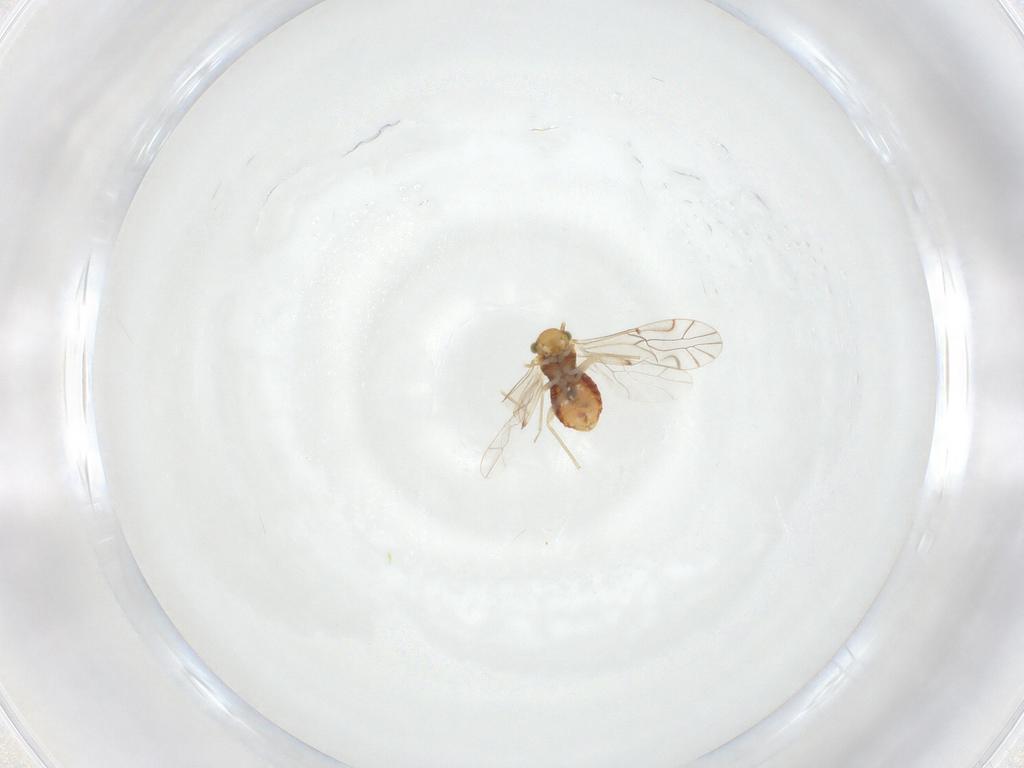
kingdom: Animalia
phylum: Arthropoda
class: Insecta
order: Psocodea
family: Lachesillidae
